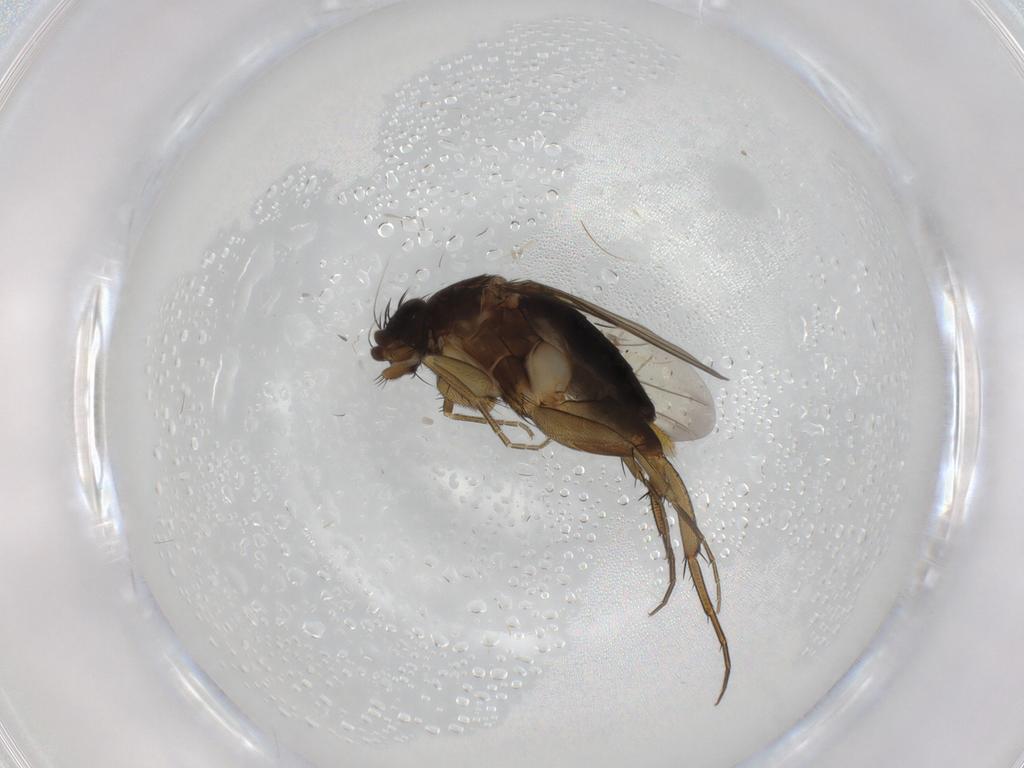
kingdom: Animalia
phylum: Arthropoda
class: Insecta
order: Diptera
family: Phoridae
